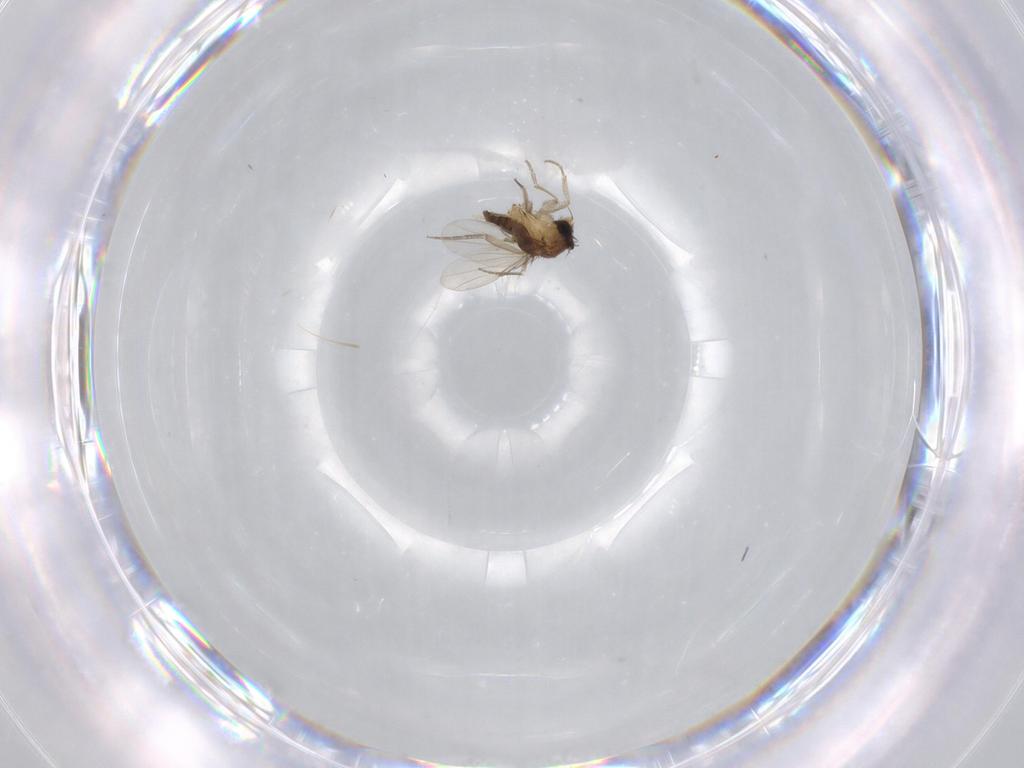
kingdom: Animalia
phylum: Arthropoda
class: Insecta
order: Diptera
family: Phoridae
